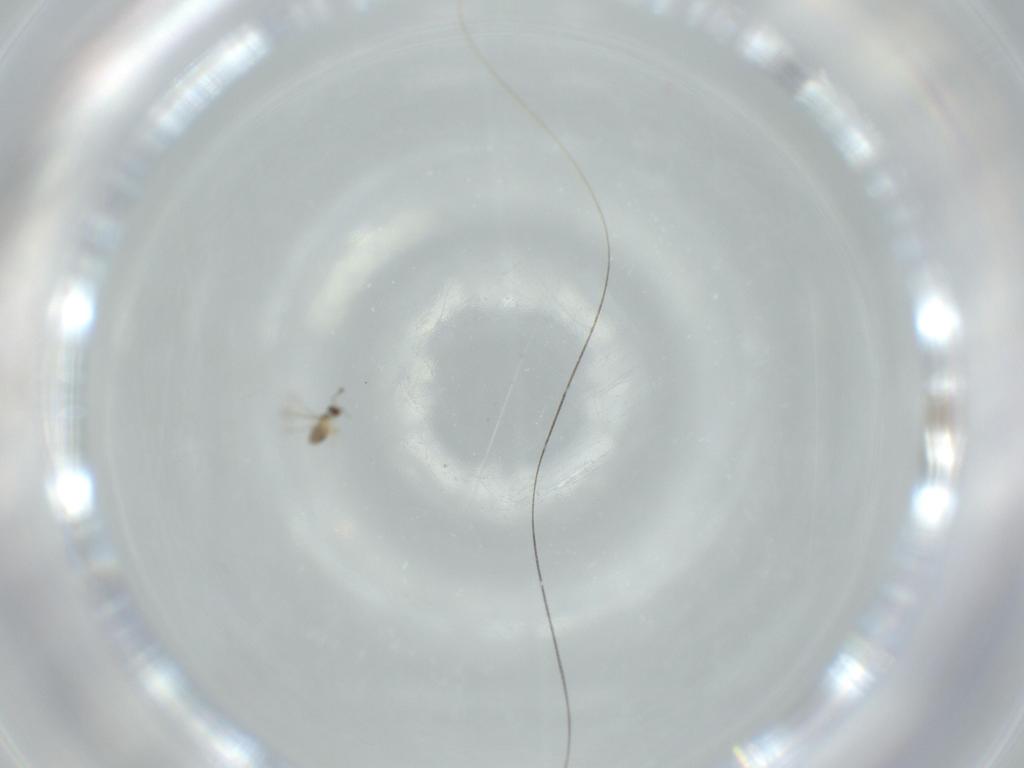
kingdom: Animalia
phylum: Arthropoda
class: Insecta
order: Hymenoptera
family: Mymaridae
